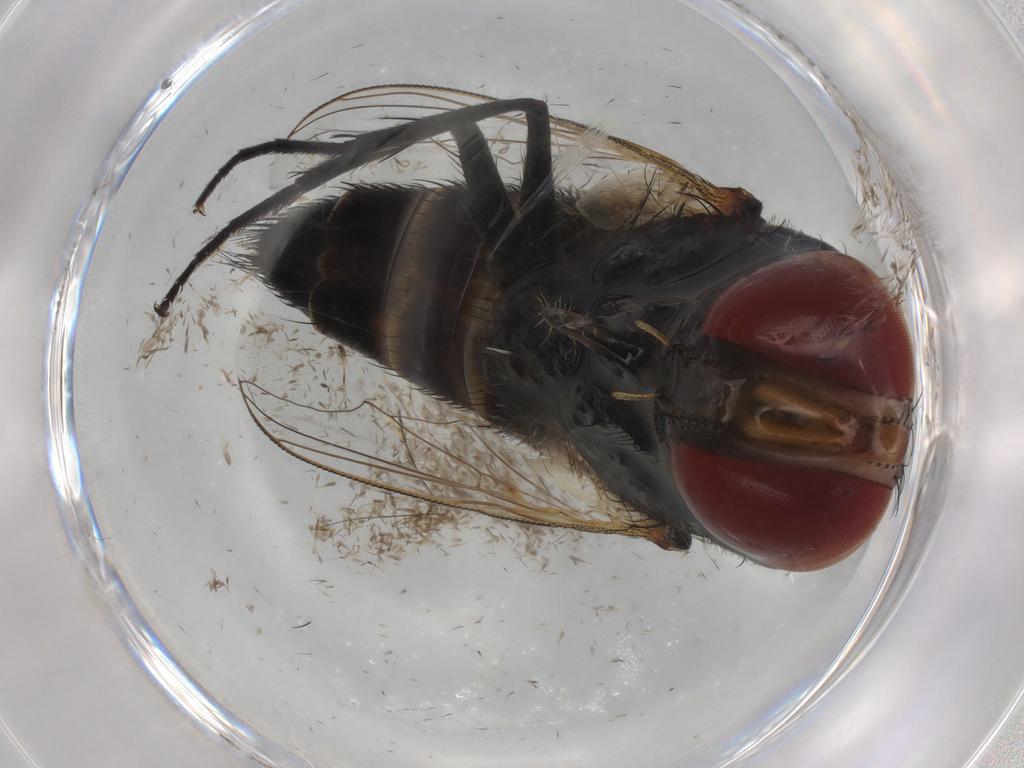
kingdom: Animalia
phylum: Arthropoda
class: Insecta
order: Diptera
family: Sarcophagidae
